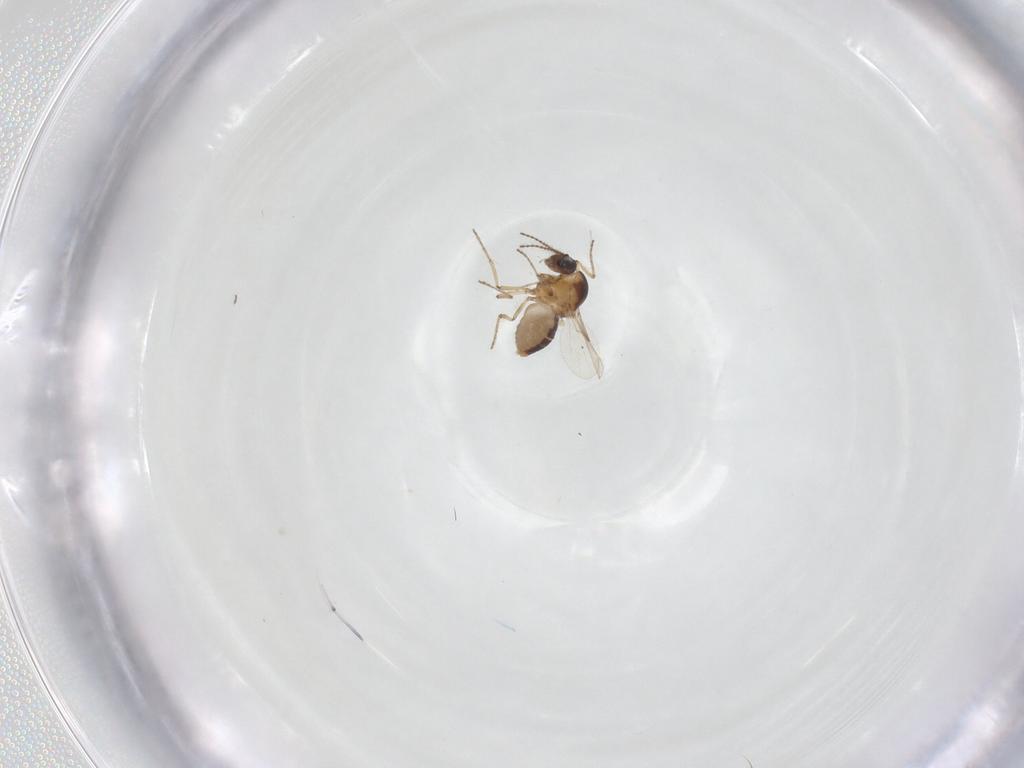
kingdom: Animalia
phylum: Arthropoda
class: Insecta
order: Diptera
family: Ceratopogonidae
